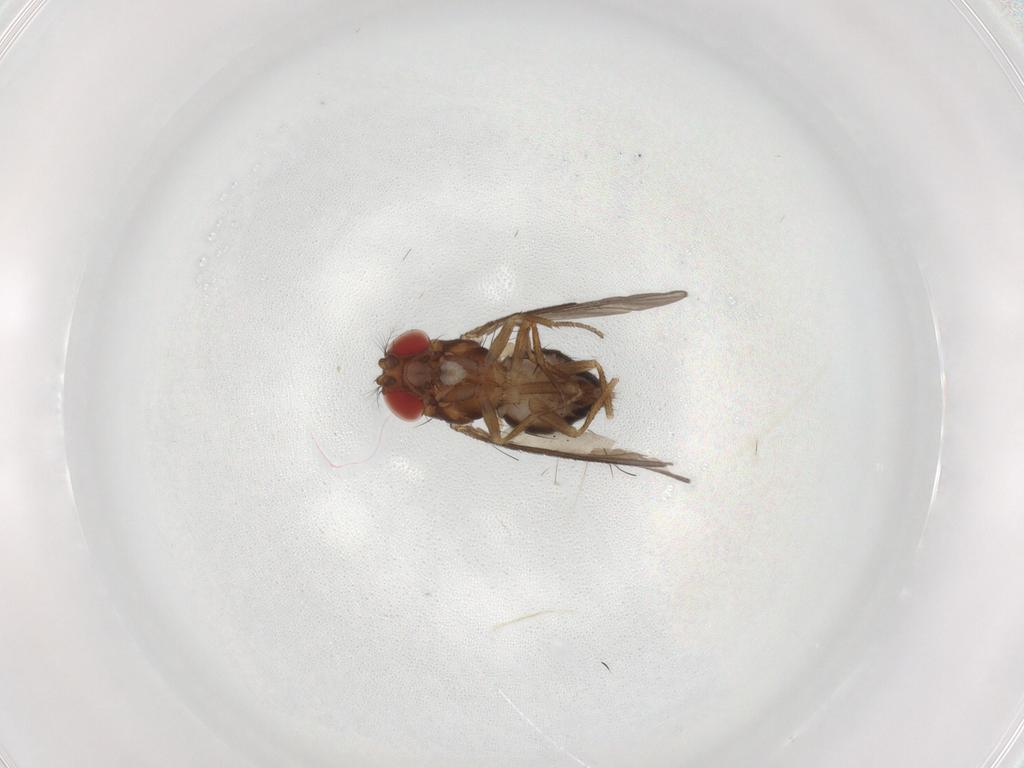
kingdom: Animalia
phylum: Arthropoda
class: Insecta
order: Diptera
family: Drosophilidae
